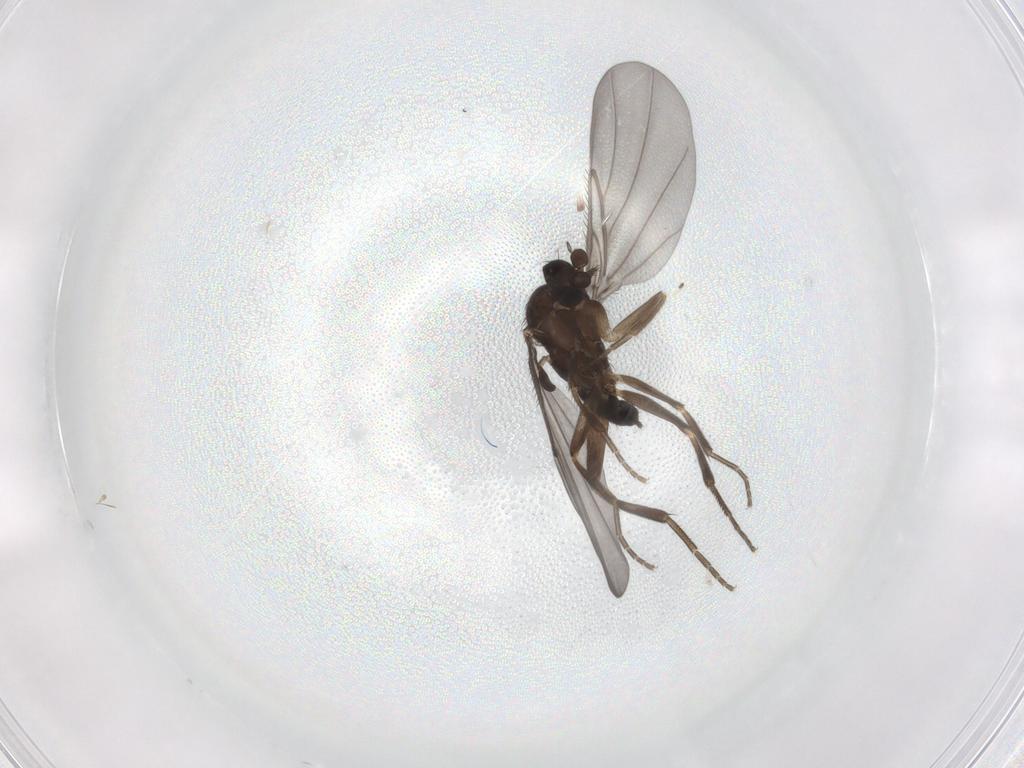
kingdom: Animalia
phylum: Arthropoda
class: Insecta
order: Diptera
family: Phoridae
